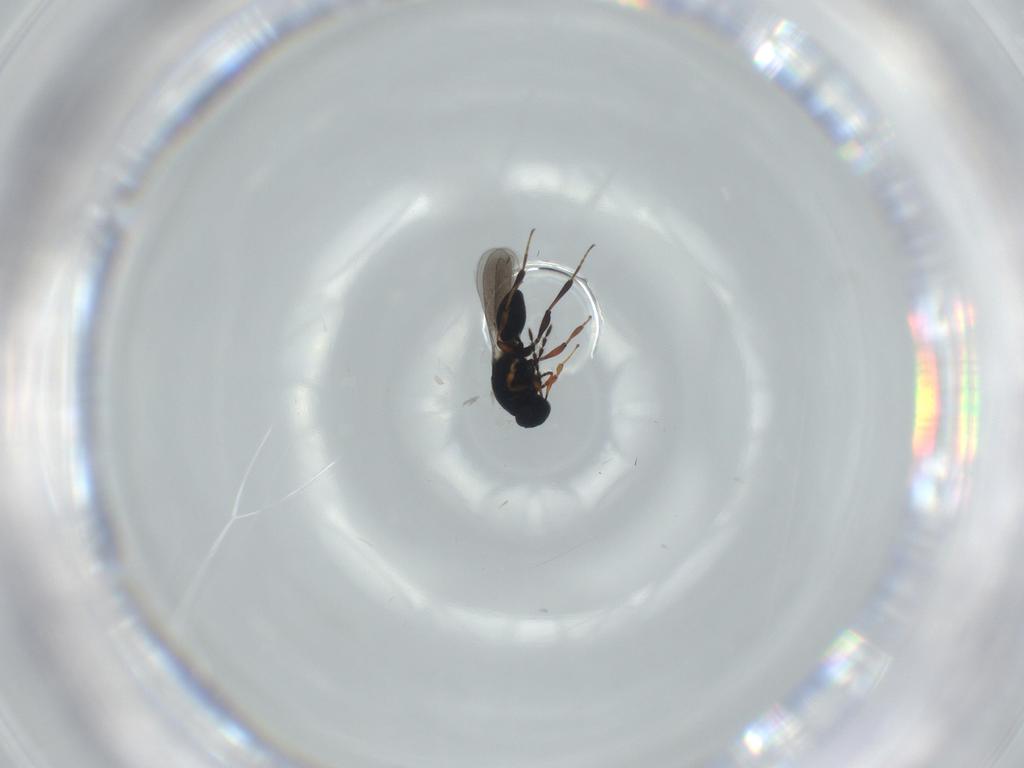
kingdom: Animalia
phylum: Arthropoda
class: Insecta
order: Hymenoptera
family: Platygastridae
